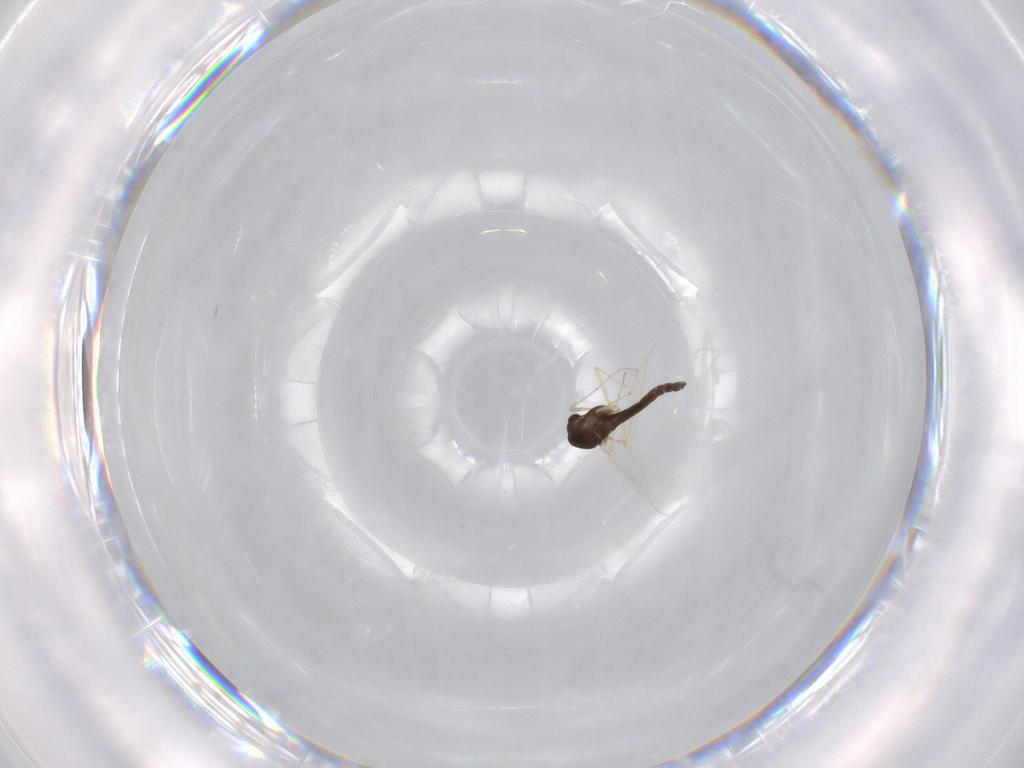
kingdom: Animalia
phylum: Arthropoda
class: Insecta
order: Diptera
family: Chironomidae
